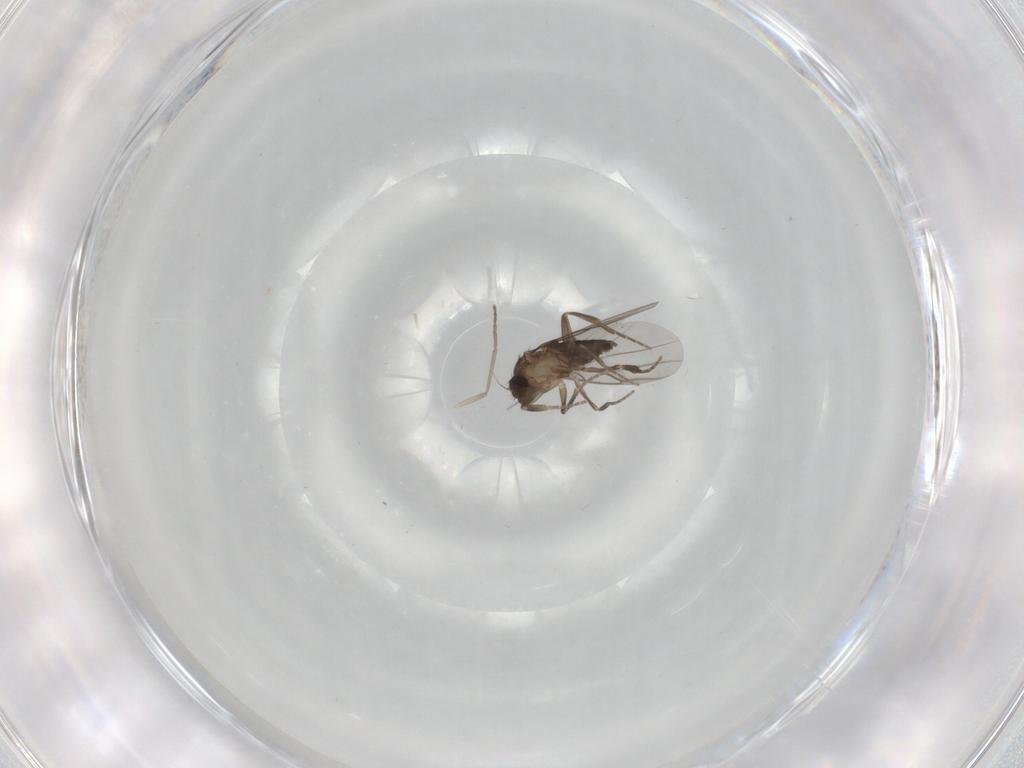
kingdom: Animalia
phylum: Arthropoda
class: Insecta
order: Diptera
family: Phoridae
